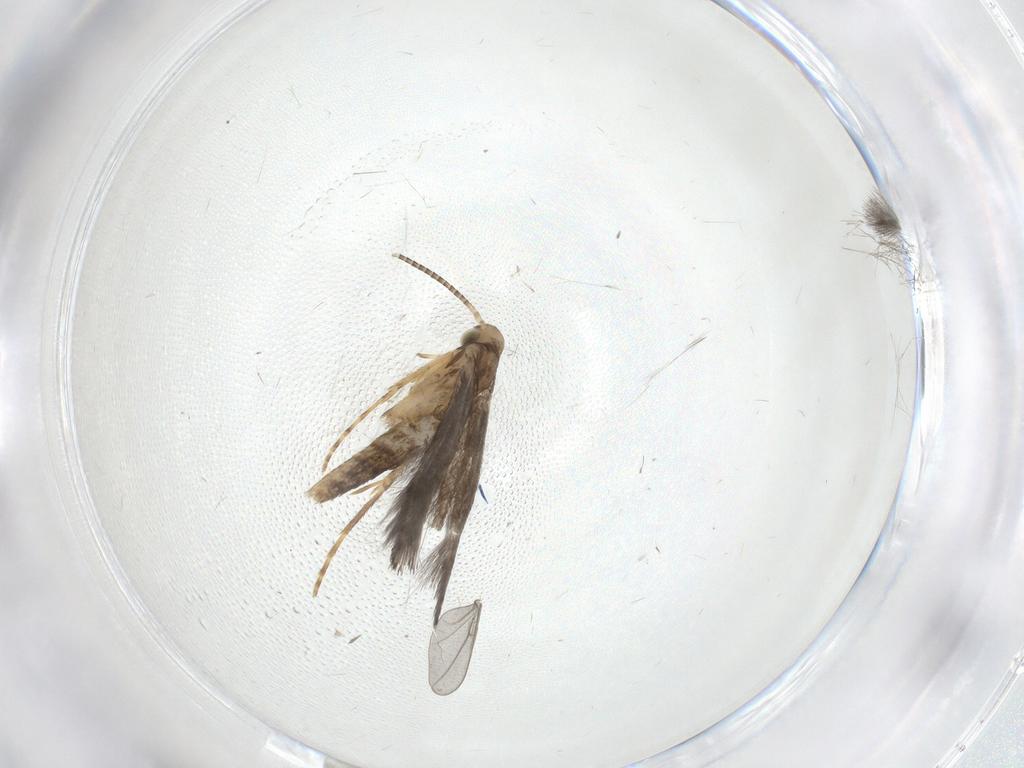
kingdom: Animalia
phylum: Arthropoda
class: Insecta
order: Lepidoptera
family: Gracillariidae
